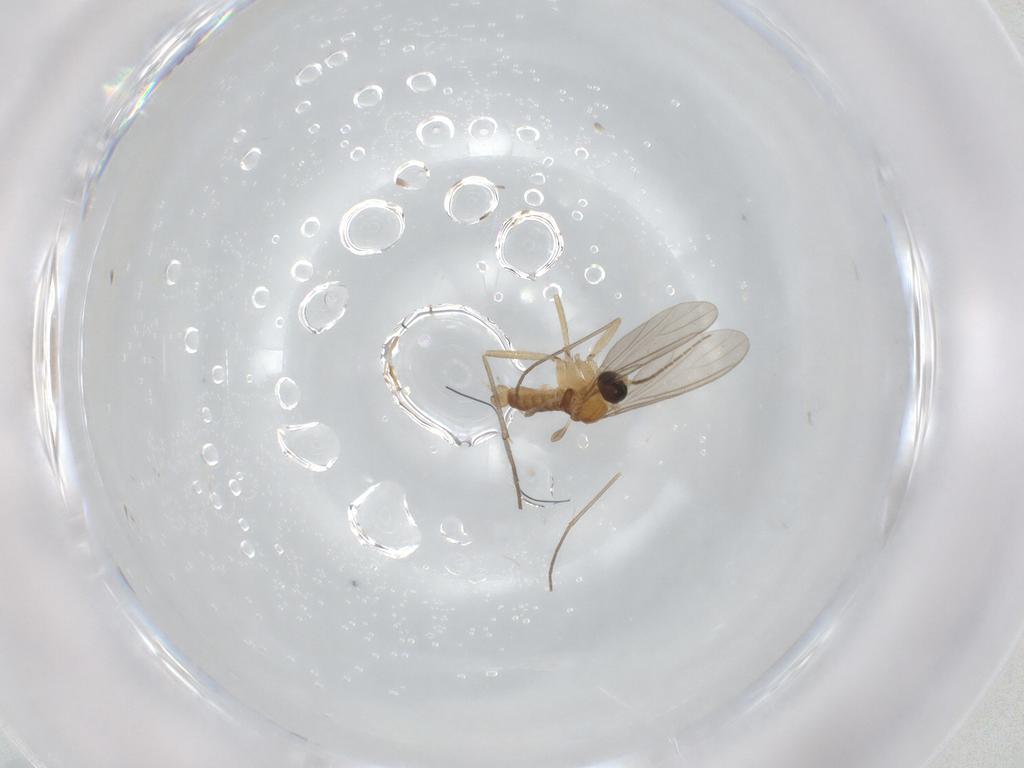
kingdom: Animalia
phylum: Arthropoda
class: Insecta
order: Diptera
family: Sciaridae
